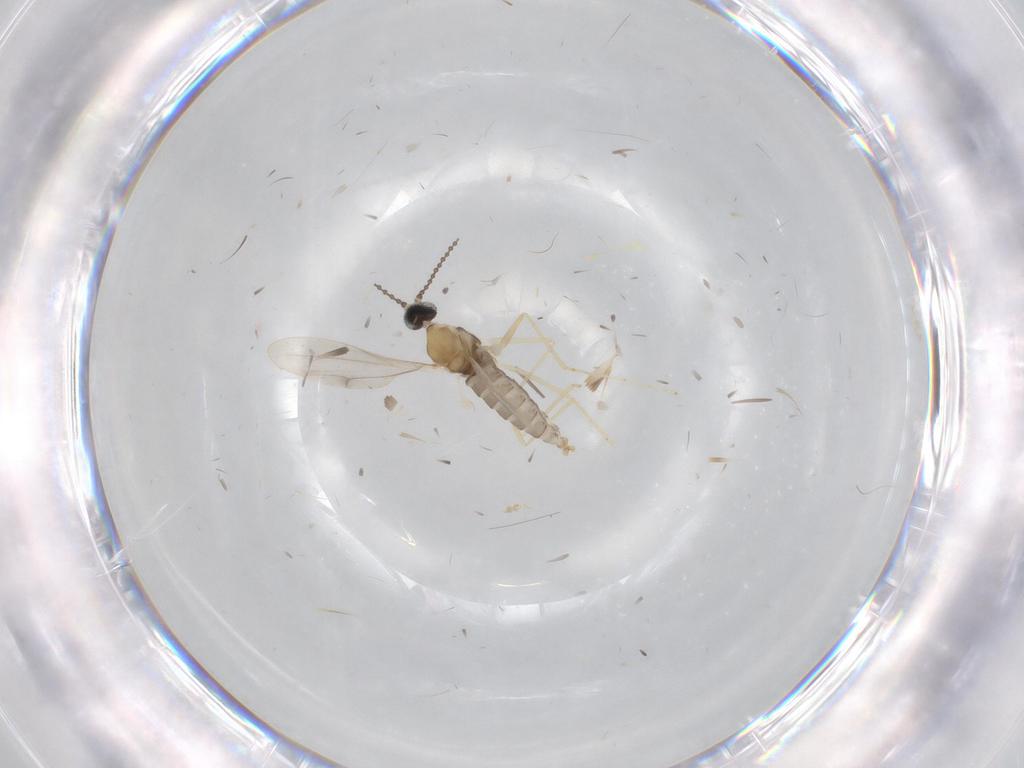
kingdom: Animalia
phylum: Arthropoda
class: Insecta
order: Diptera
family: Cecidomyiidae
